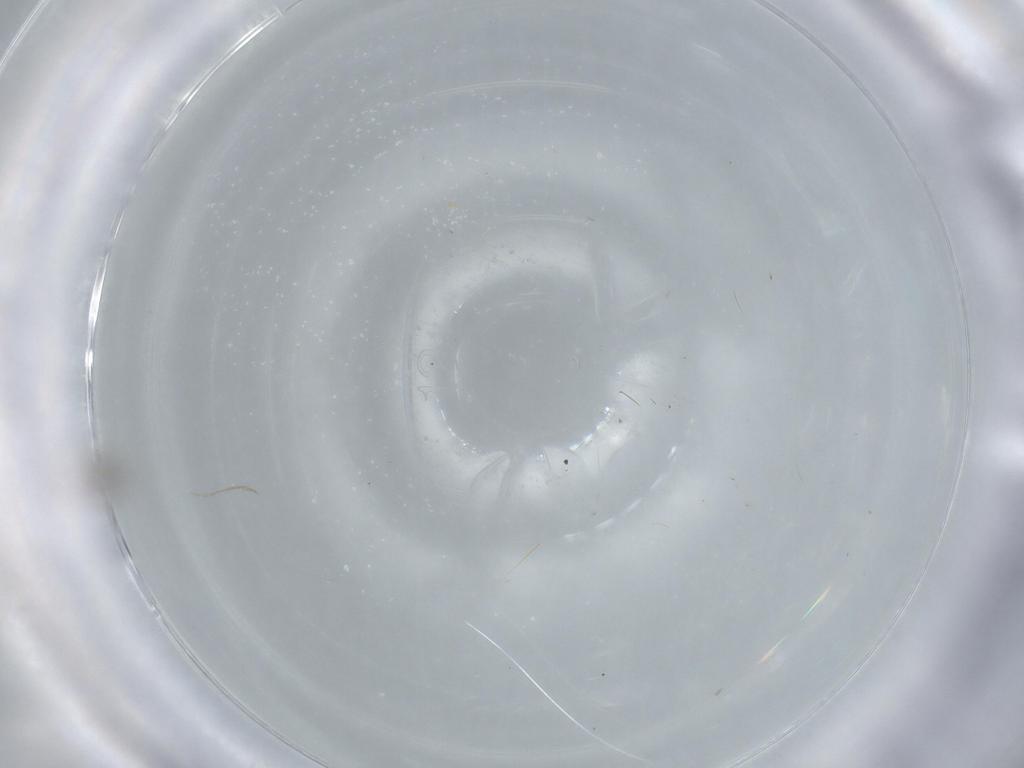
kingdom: Animalia
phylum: Arthropoda
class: Insecta
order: Diptera
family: Cecidomyiidae
